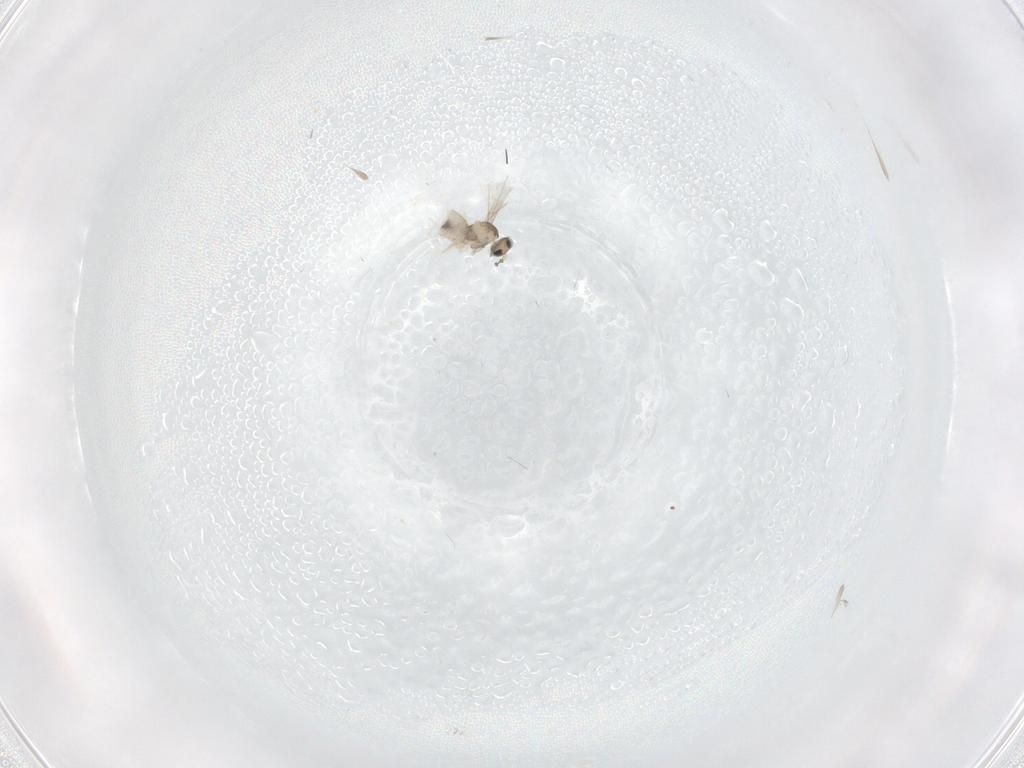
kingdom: Animalia
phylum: Arthropoda
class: Insecta
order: Diptera
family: Cecidomyiidae
